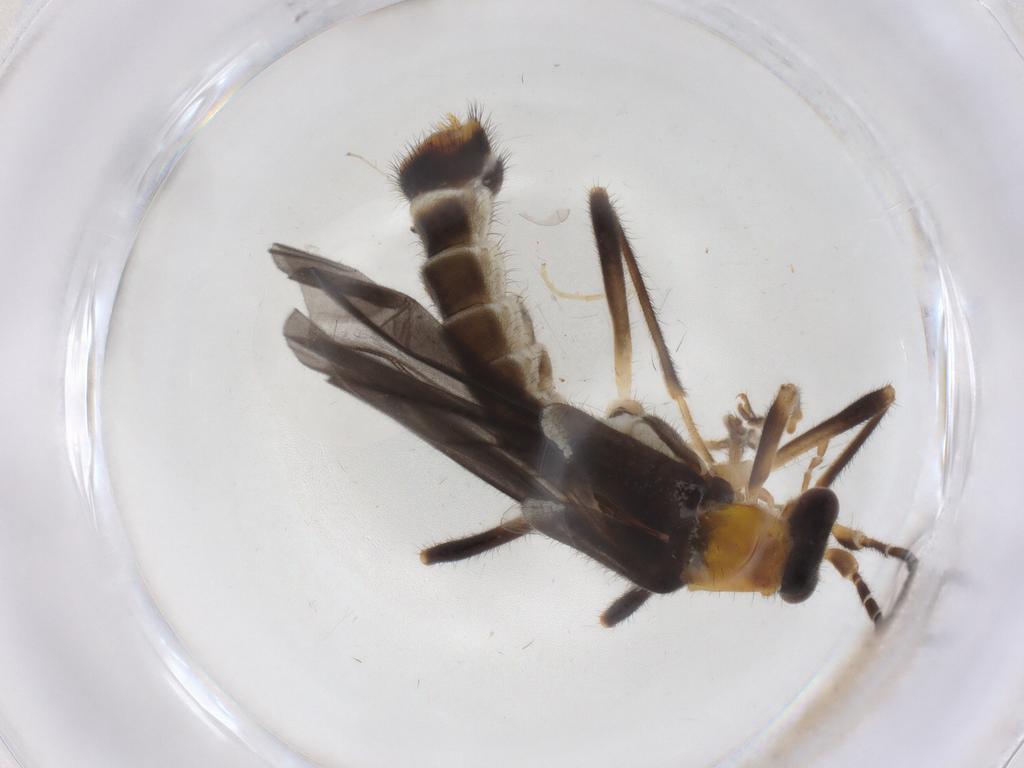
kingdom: Animalia
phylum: Arthropoda
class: Insecta
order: Coleoptera
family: Cantharidae
